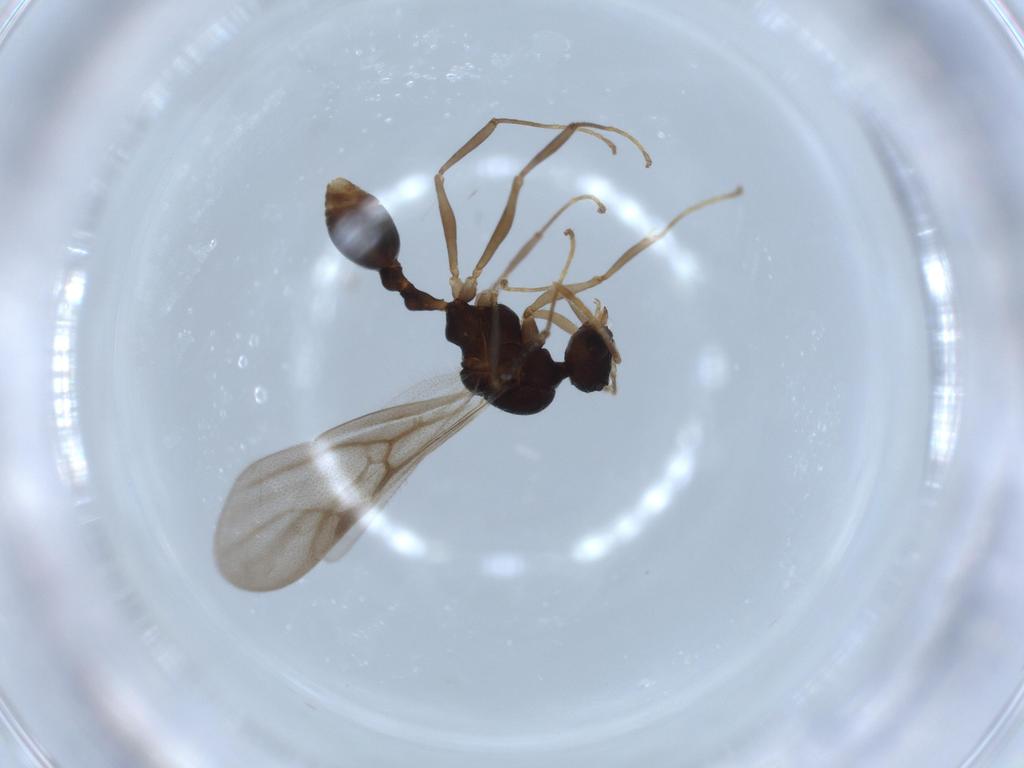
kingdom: Animalia
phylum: Arthropoda
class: Insecta
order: Hymenoptera
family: Formicidae
